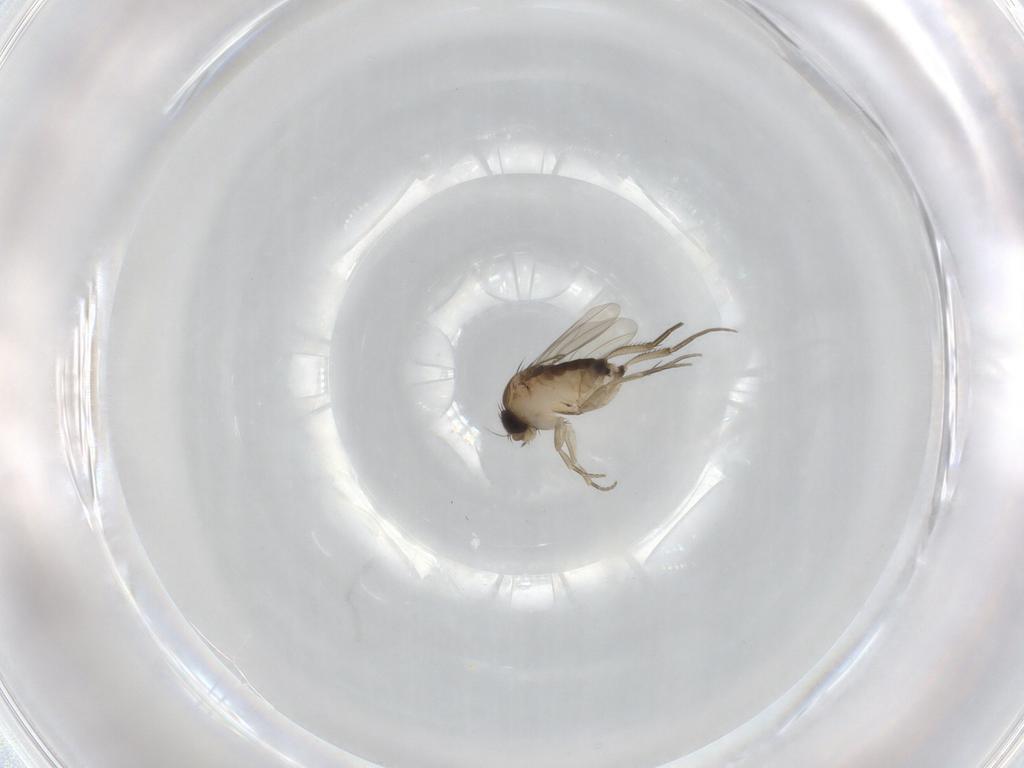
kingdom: Animalia
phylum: Arthropoda
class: Insecta
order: Diptera
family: Phoridae
